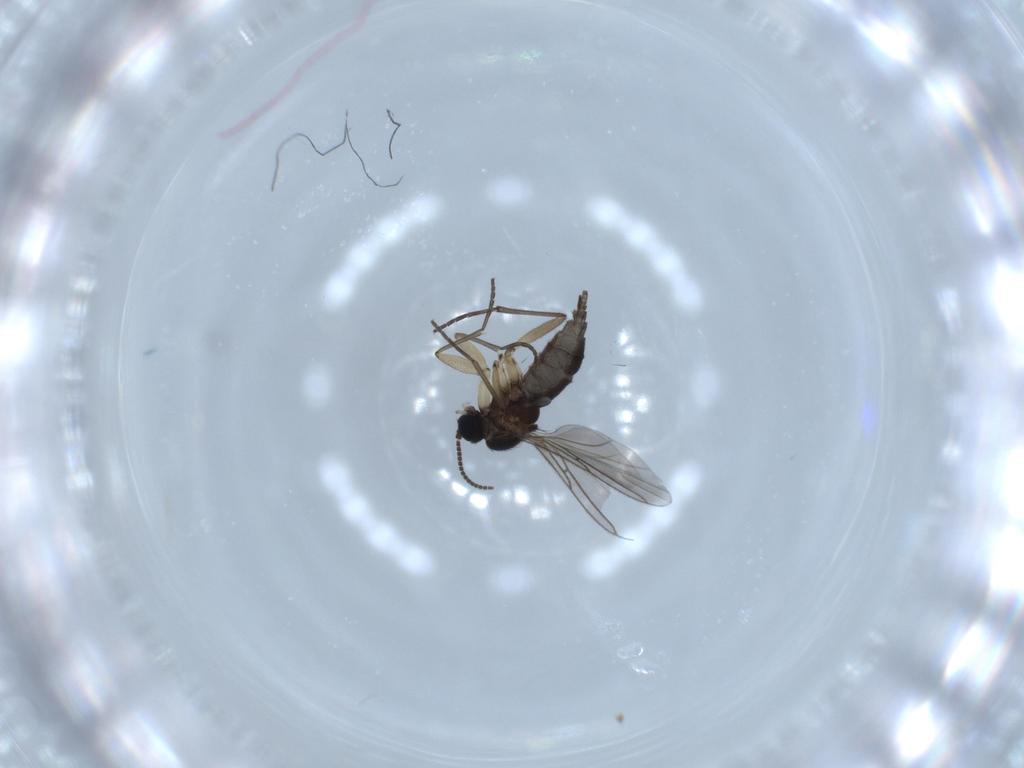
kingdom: Animalia
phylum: Arthropoda
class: Insecta
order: Diptera
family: Sciaridae
